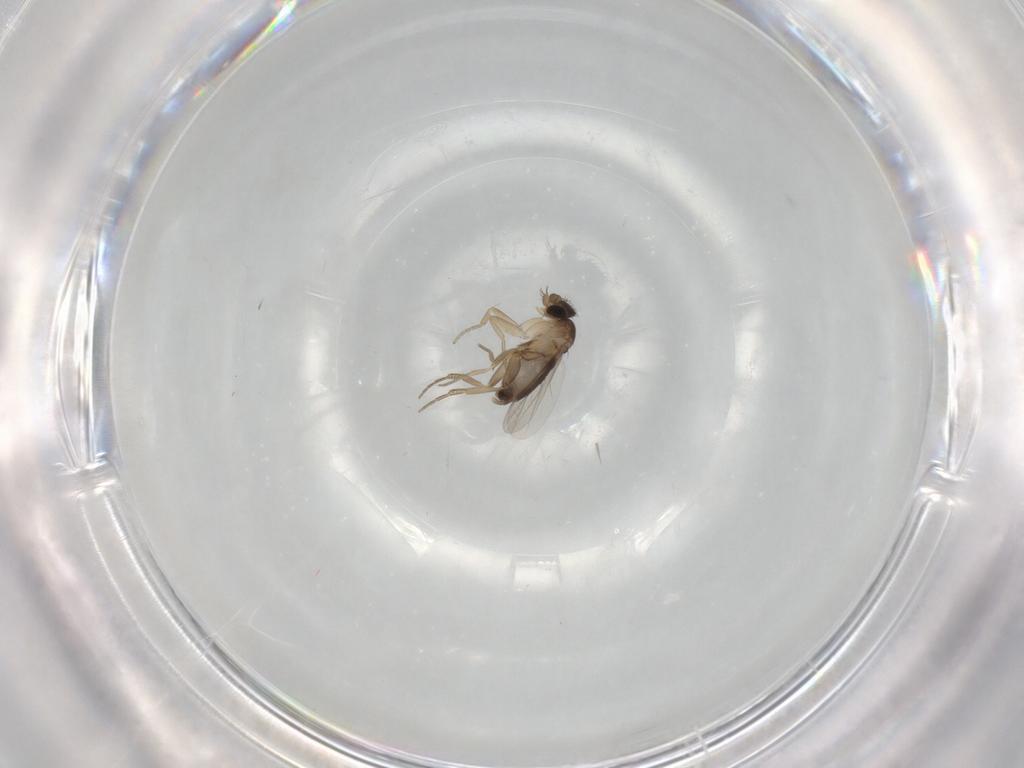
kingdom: Animalia
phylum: Arthropoda
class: Insecta
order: Diptera
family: Phoridae
